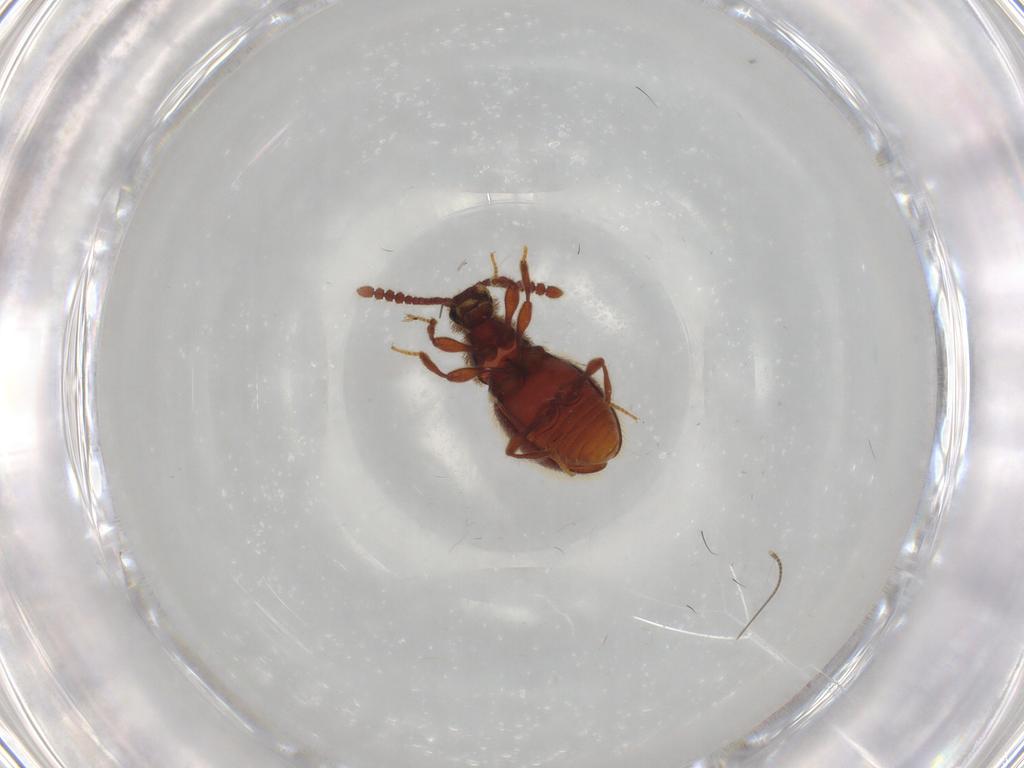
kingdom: Animalia
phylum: Arthropoda
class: Insecta
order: Coleoptera
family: Staphylinidae
